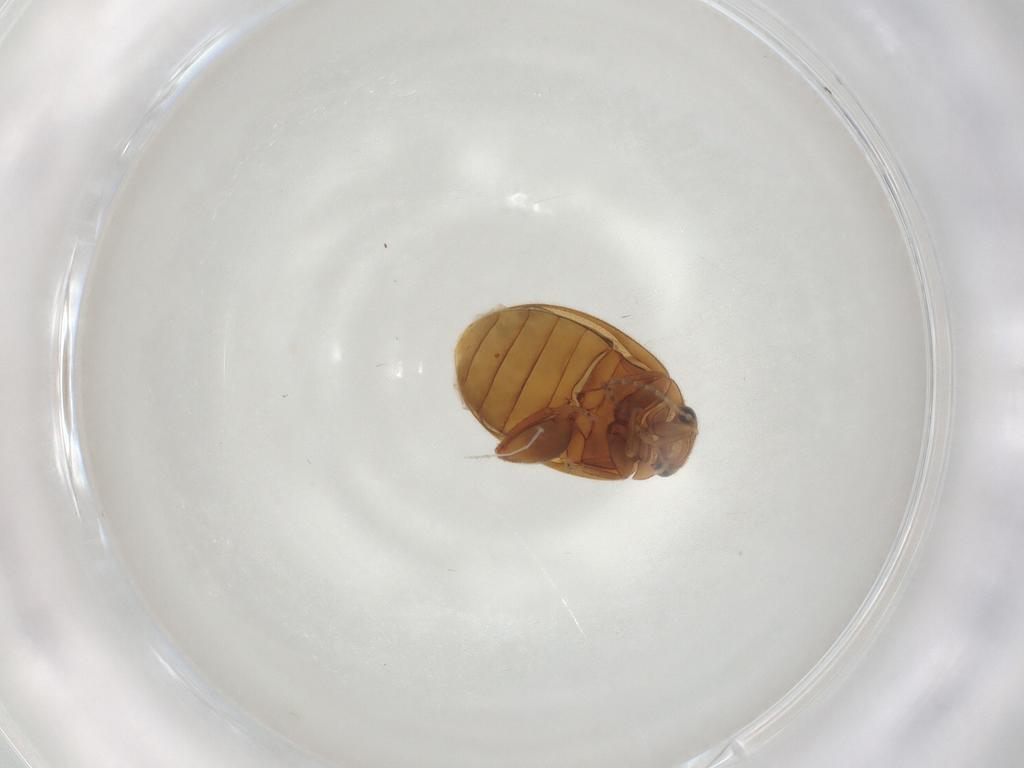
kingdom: Animalia
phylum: Arthropoda
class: Insecta
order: Coleoptera
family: Scirtidae
